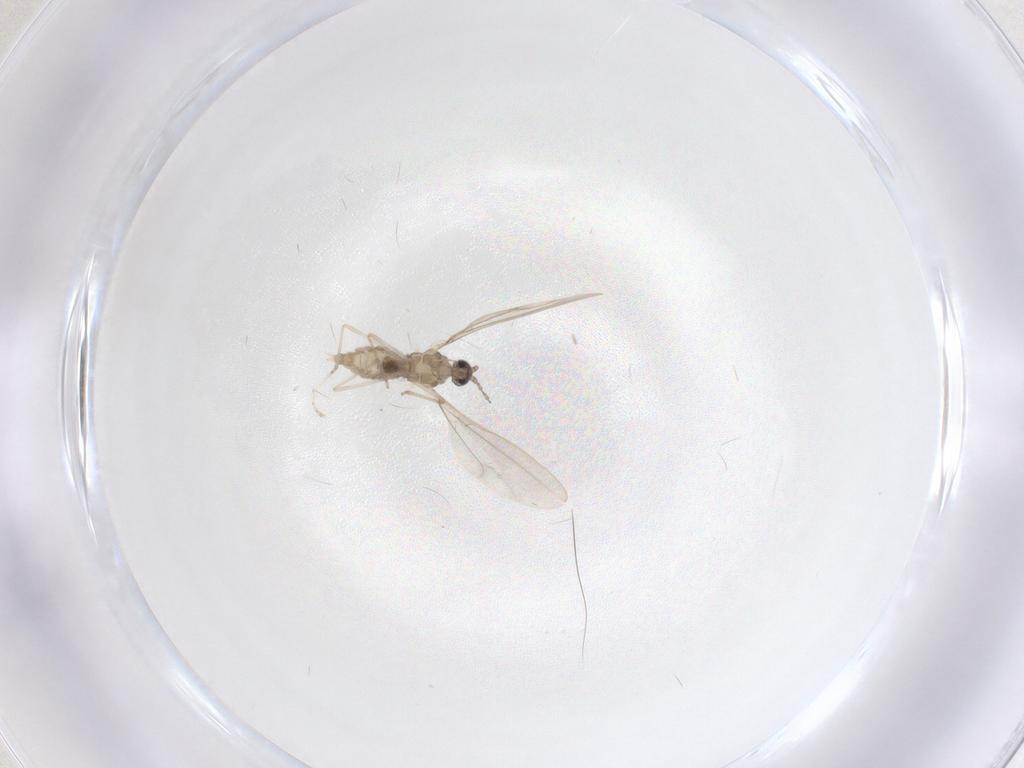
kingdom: Animalia
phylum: Arthropoda
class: Insecta
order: Diptera
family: Cecidomyiidae
